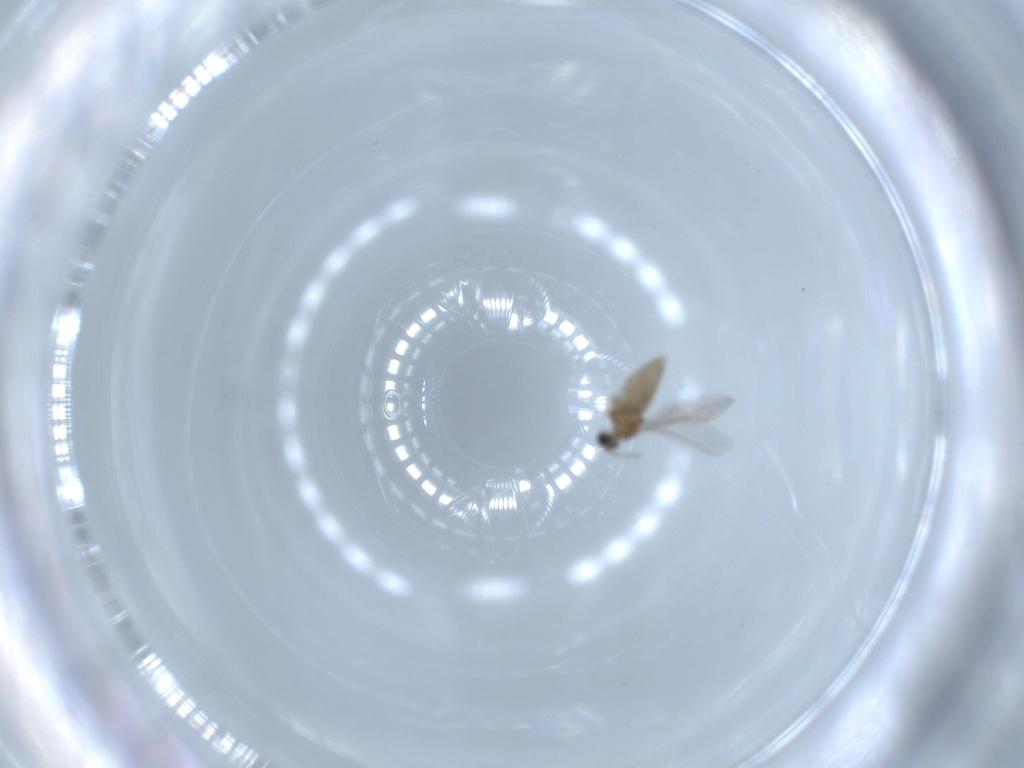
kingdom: Animalia
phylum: Arthropoda
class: Insecta
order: Diptera
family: Cecidomyiidae
